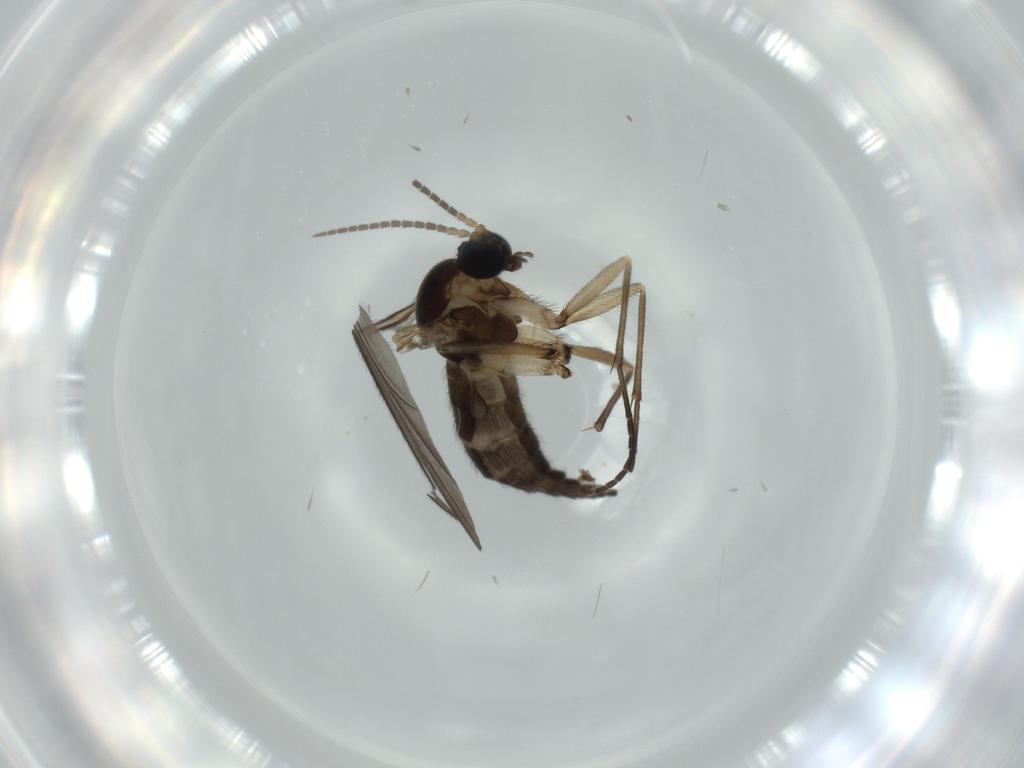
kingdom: Animalia
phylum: Arthropoda
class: Insecta
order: Diptera
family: Sciaridae
